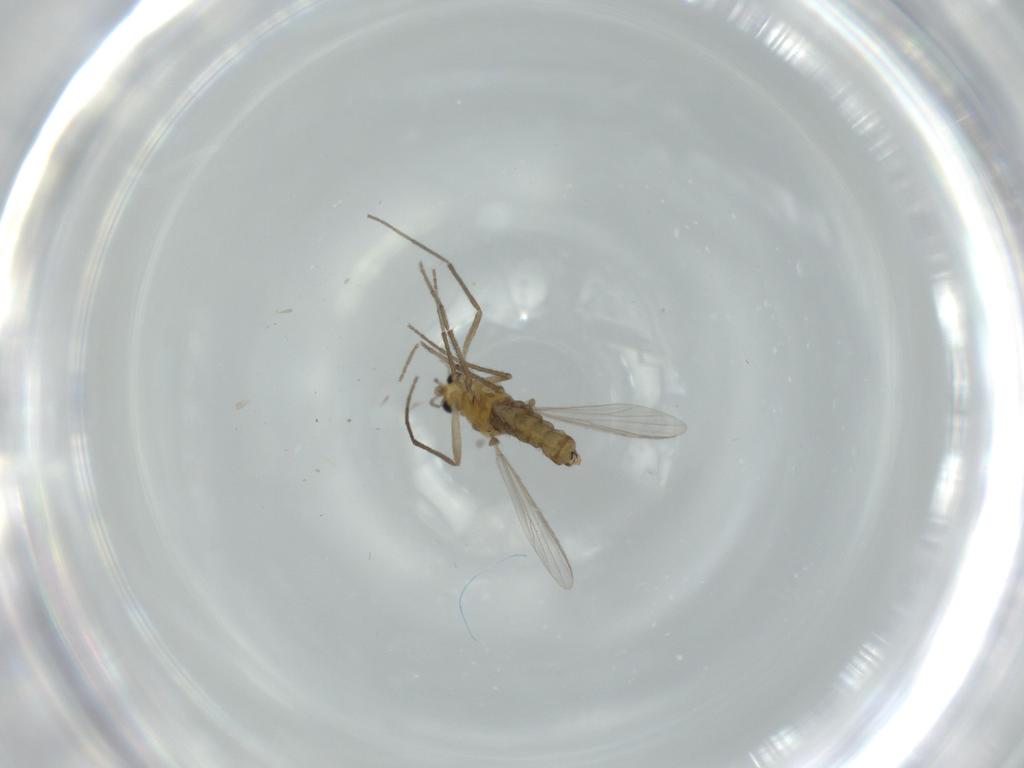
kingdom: Animalia
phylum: Arthropoda
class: Insecta
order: Diptera
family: Chironomidae
